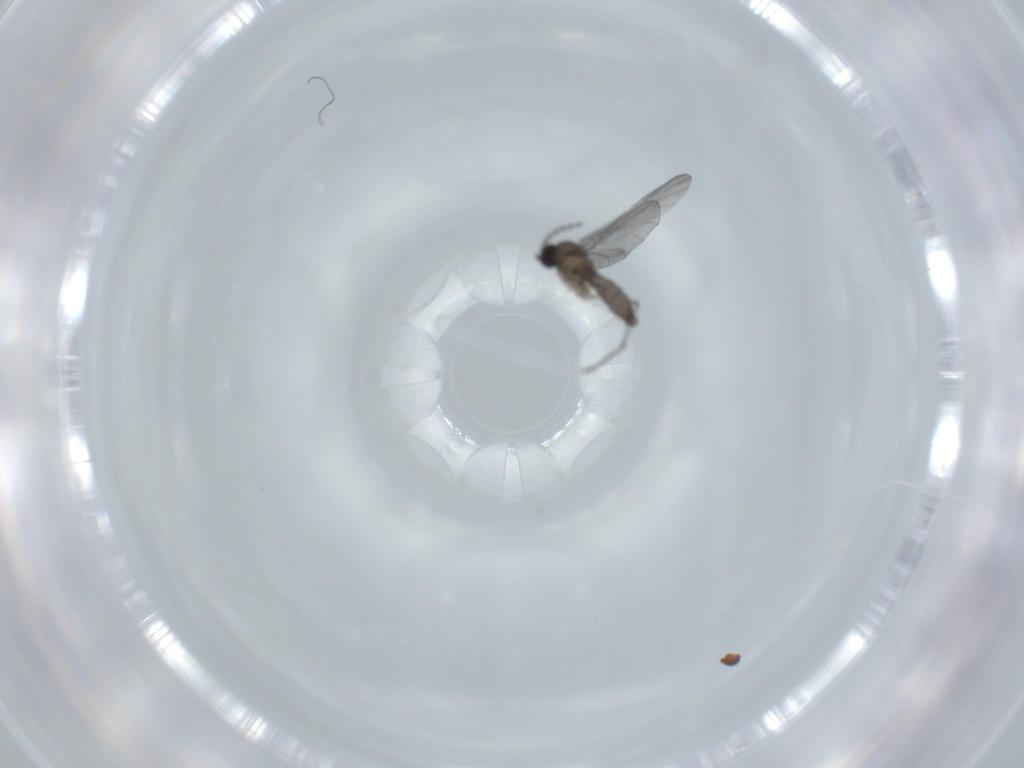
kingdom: Animalia
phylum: Arthropoda
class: Insecta
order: Diptera
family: Sciaridae
